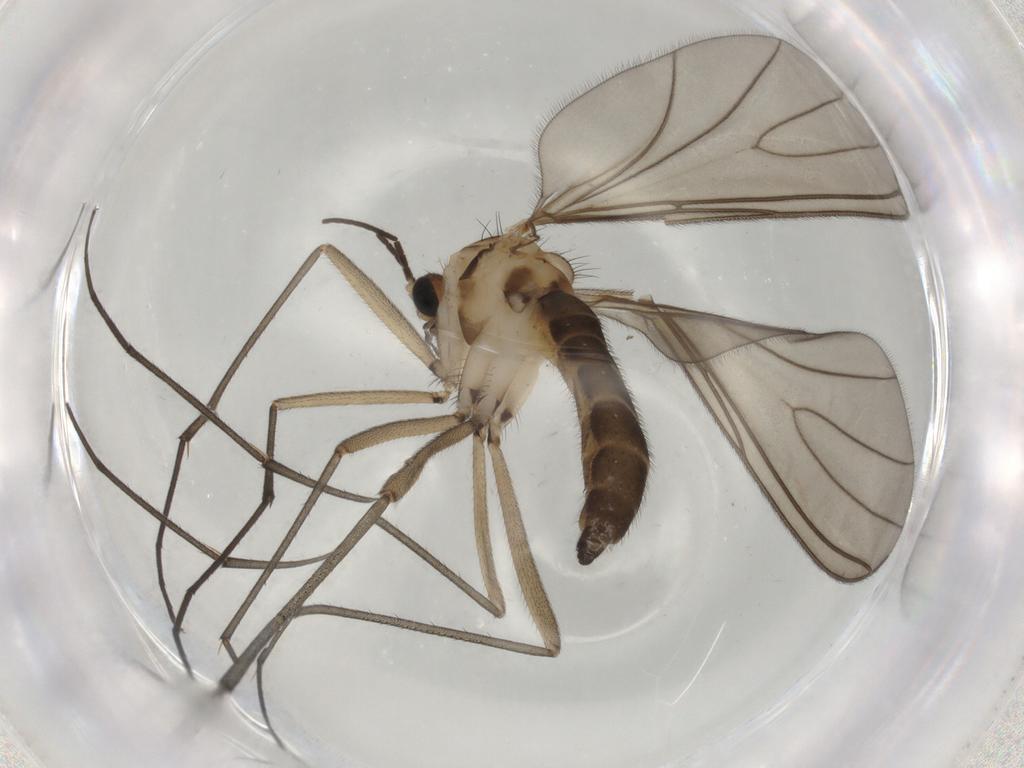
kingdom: Animalia
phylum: Arthropoda
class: Insecta
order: Diptera
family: Sciaridae
